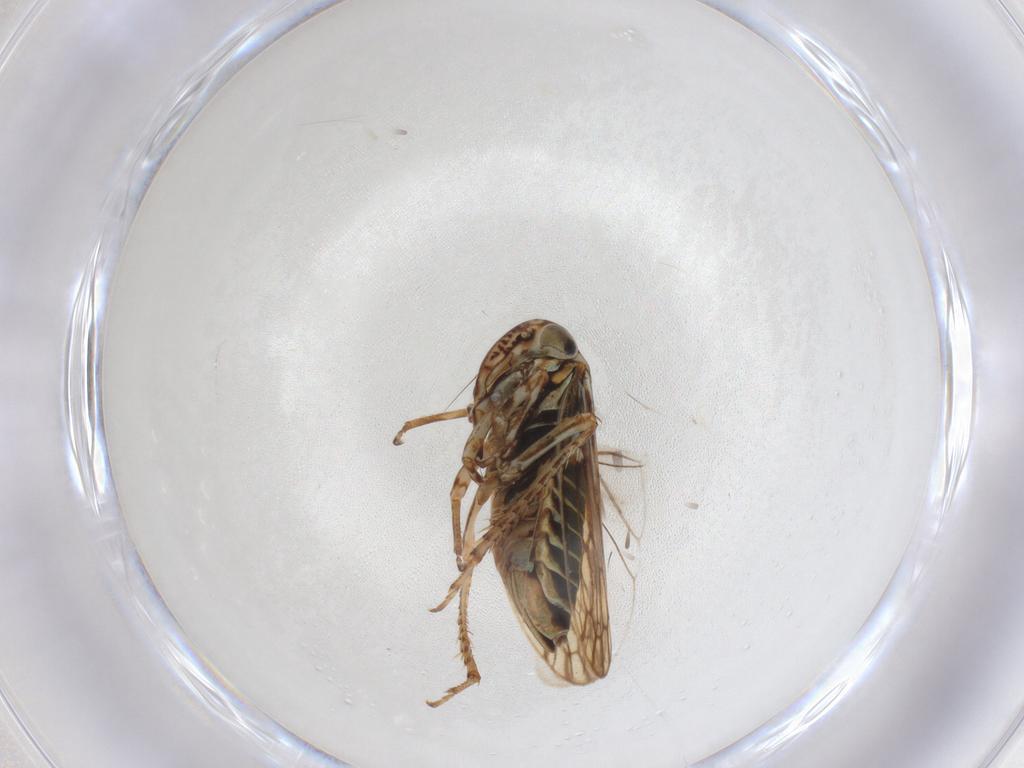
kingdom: Animalia
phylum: Arthropoda
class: Insecta
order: Hemiptera
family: Cicadellidae
